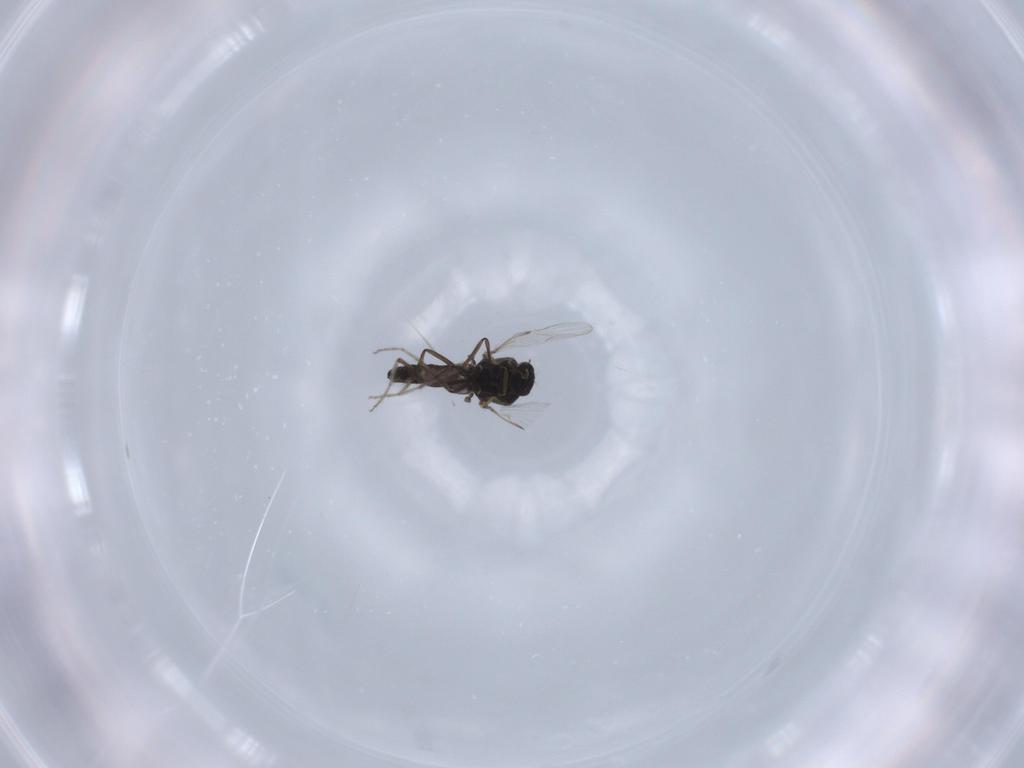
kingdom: Animalia
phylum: Arthropoda
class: Insecta
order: Diptera
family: Ceratopogonidae
